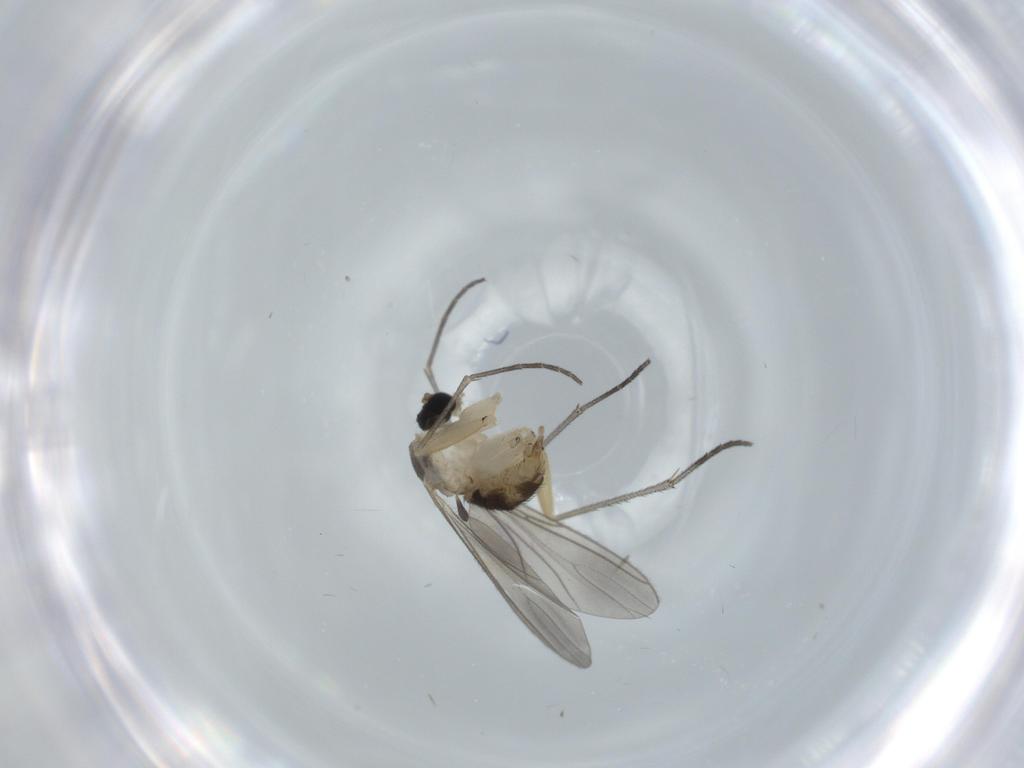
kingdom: Animalia
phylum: Arthropoda
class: Insecta
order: Diptera
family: Sciaridae
